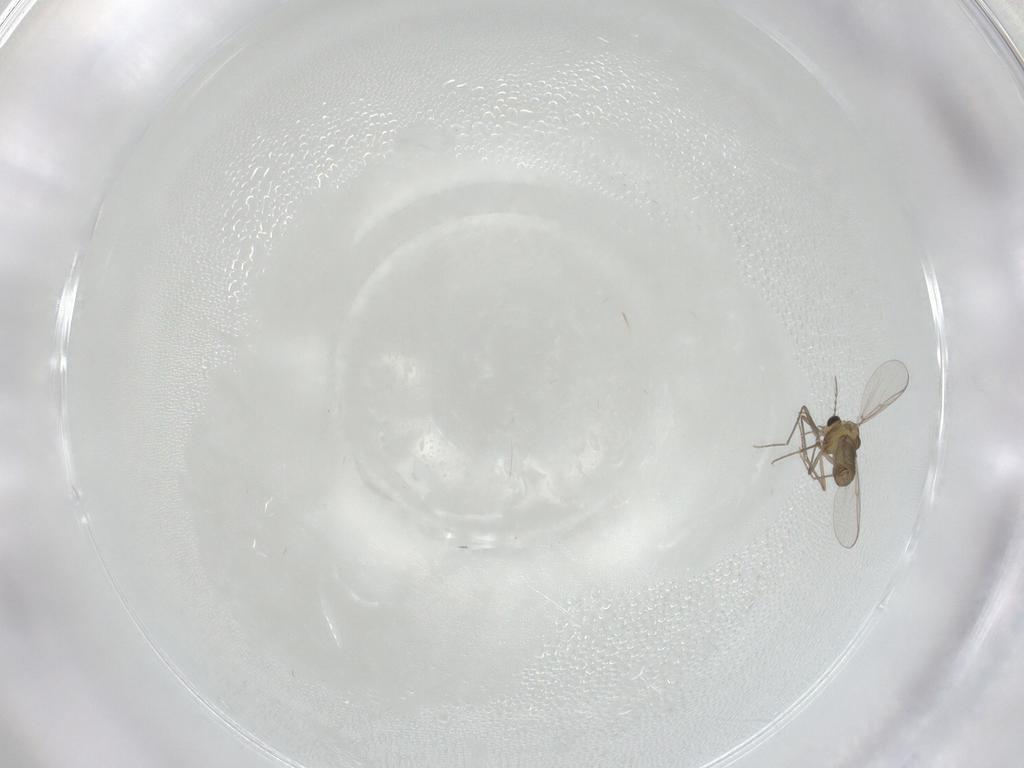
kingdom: Animalia
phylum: Arthropoda
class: Insecta
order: Diptera
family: Chironomidae
